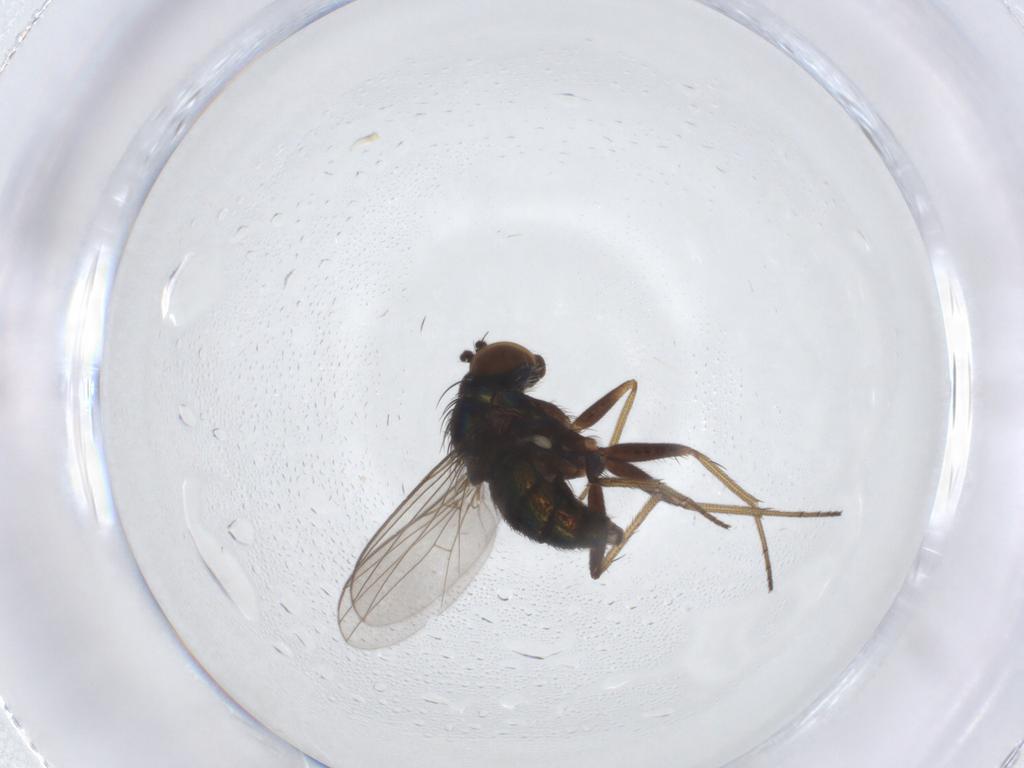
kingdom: Animalia
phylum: Arthropoda
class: Insecta
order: Diptera
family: Dolichopodidae
